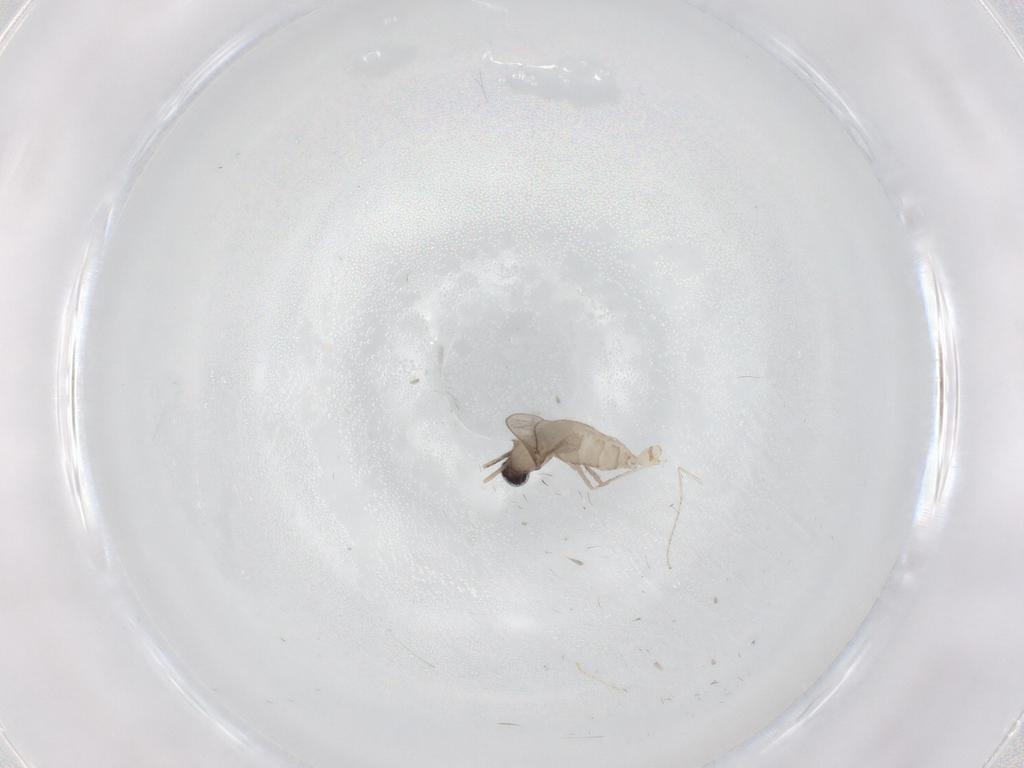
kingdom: Animalia
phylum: Arthropoda
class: Insecta
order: Diptera
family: Cecidomyiidae
